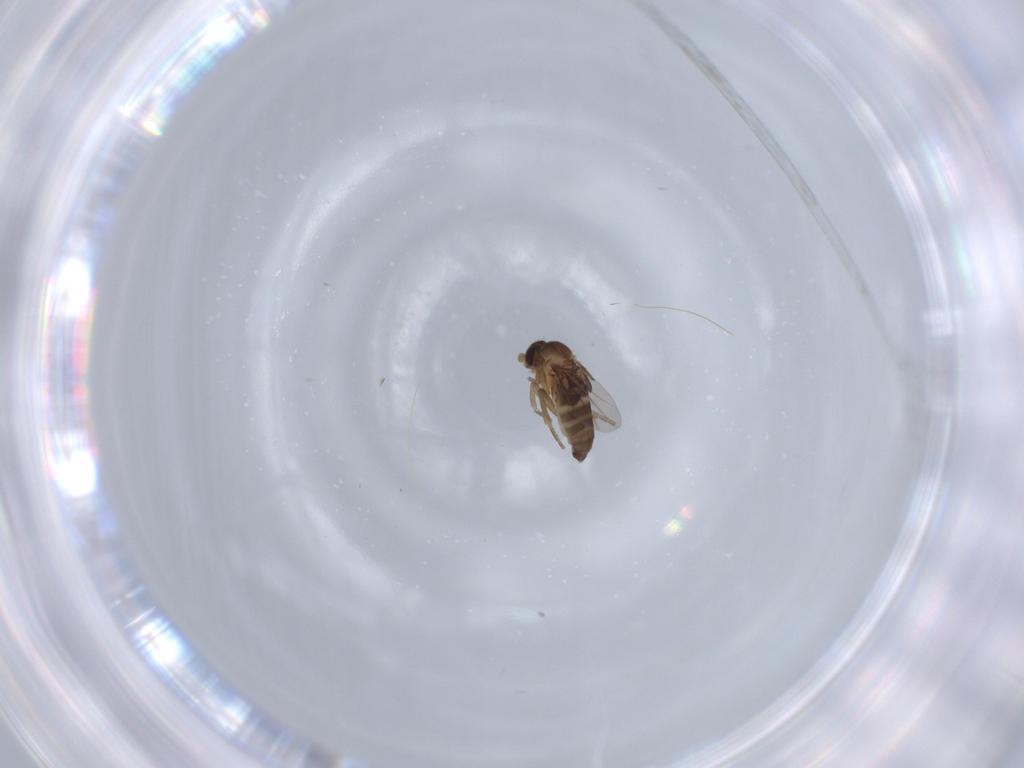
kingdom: Animalia
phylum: Arthropoda
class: Insecta
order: Diptera
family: Phoridae
